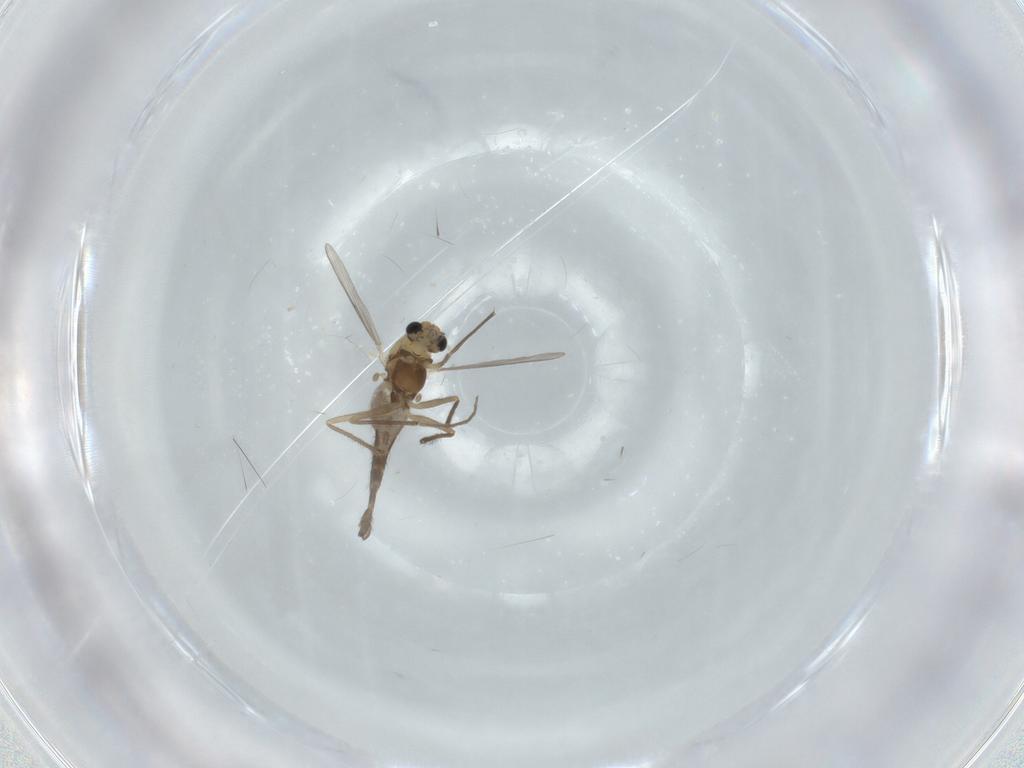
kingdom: Animalia
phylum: Arthropoda
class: Insecta
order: Diptera
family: Chironomidae
